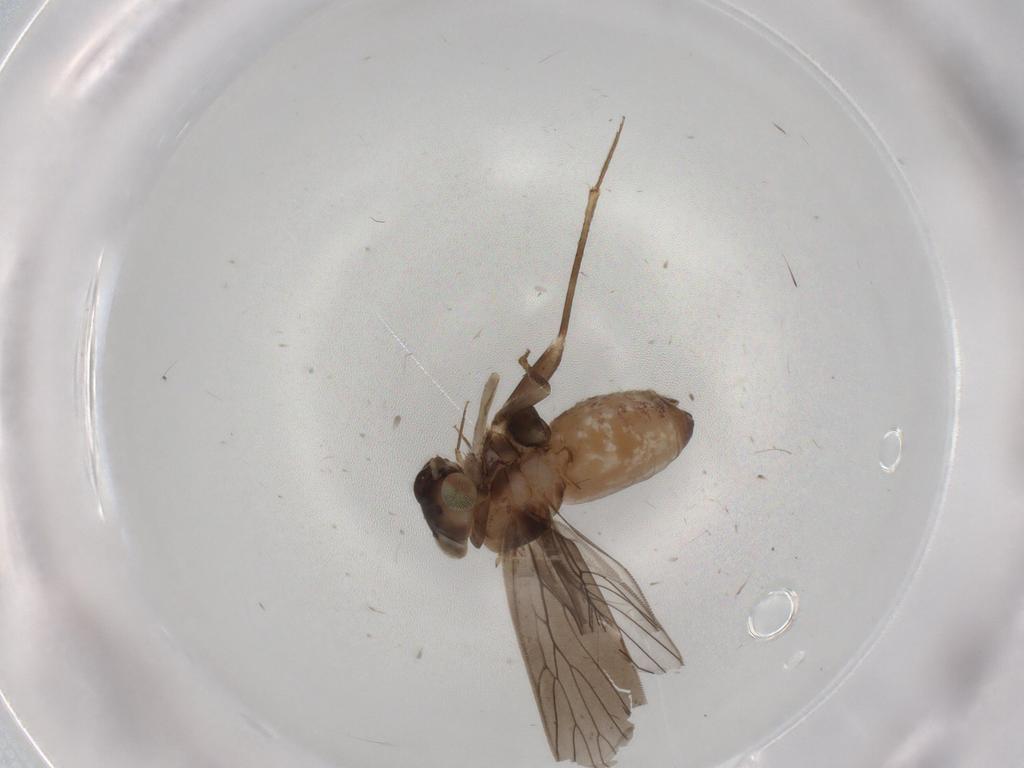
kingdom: Animalia
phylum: Arthropoda
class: Insecta
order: Psocodea
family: Lepidopsocidae
